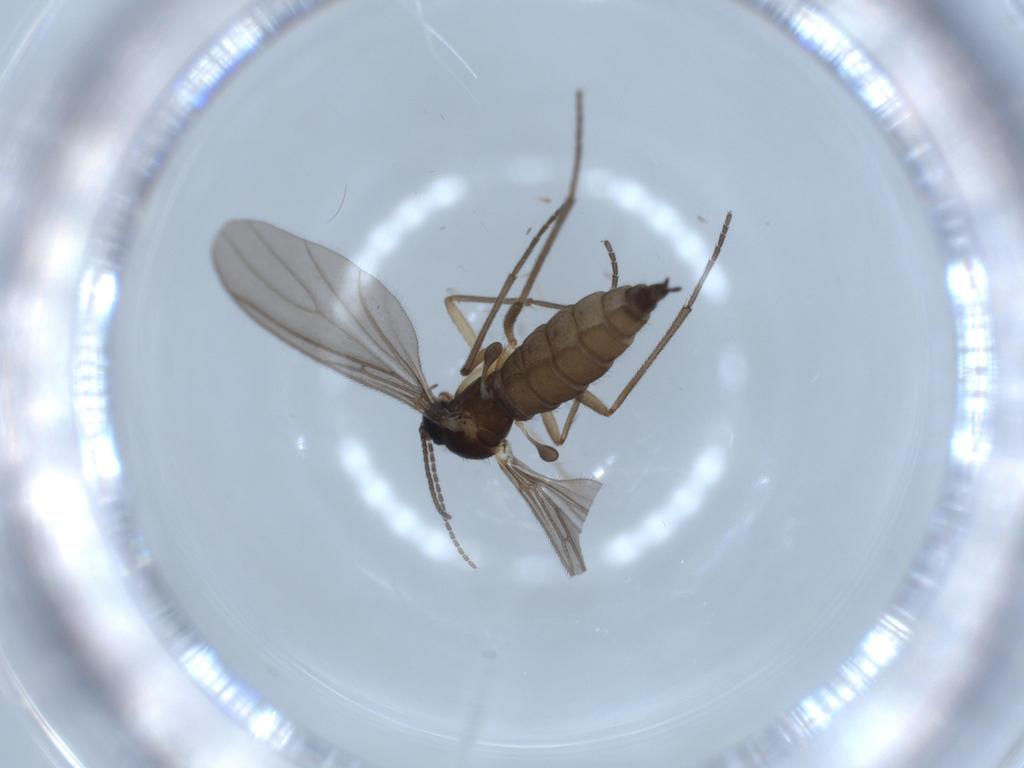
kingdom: Animalia
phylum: Arthropoda
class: Insecta
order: Diptera
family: Sciaridae
